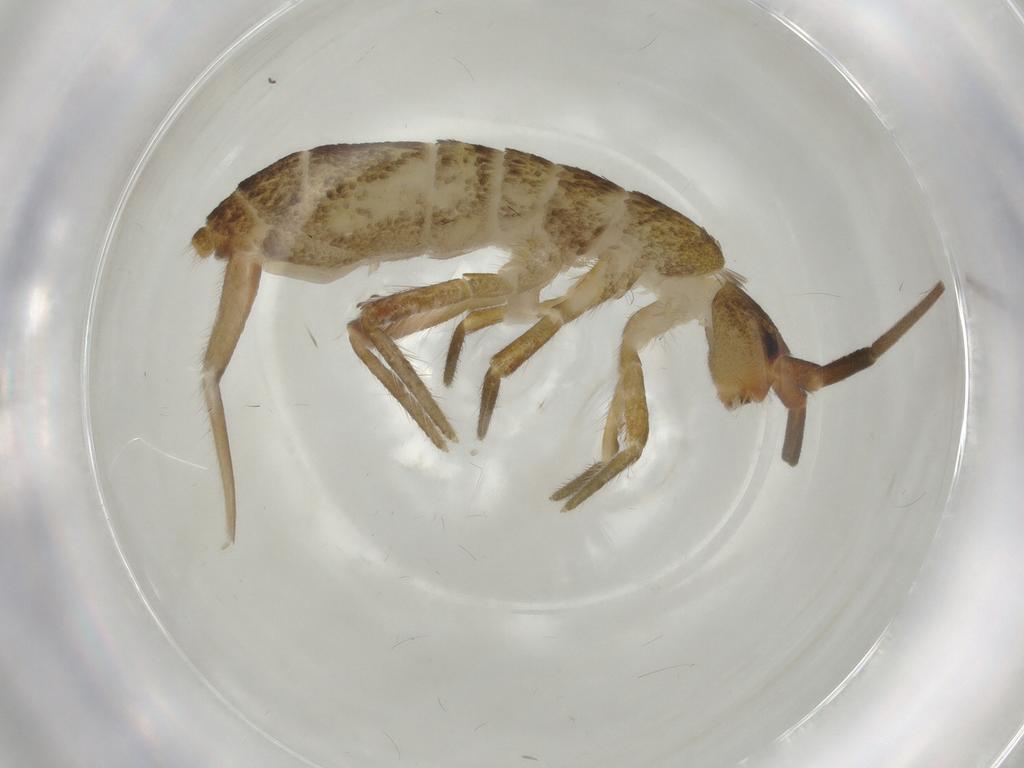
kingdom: Animalia
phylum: Arthropoda
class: Collembola
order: Entomobryomorpha
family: Tomoceridae
